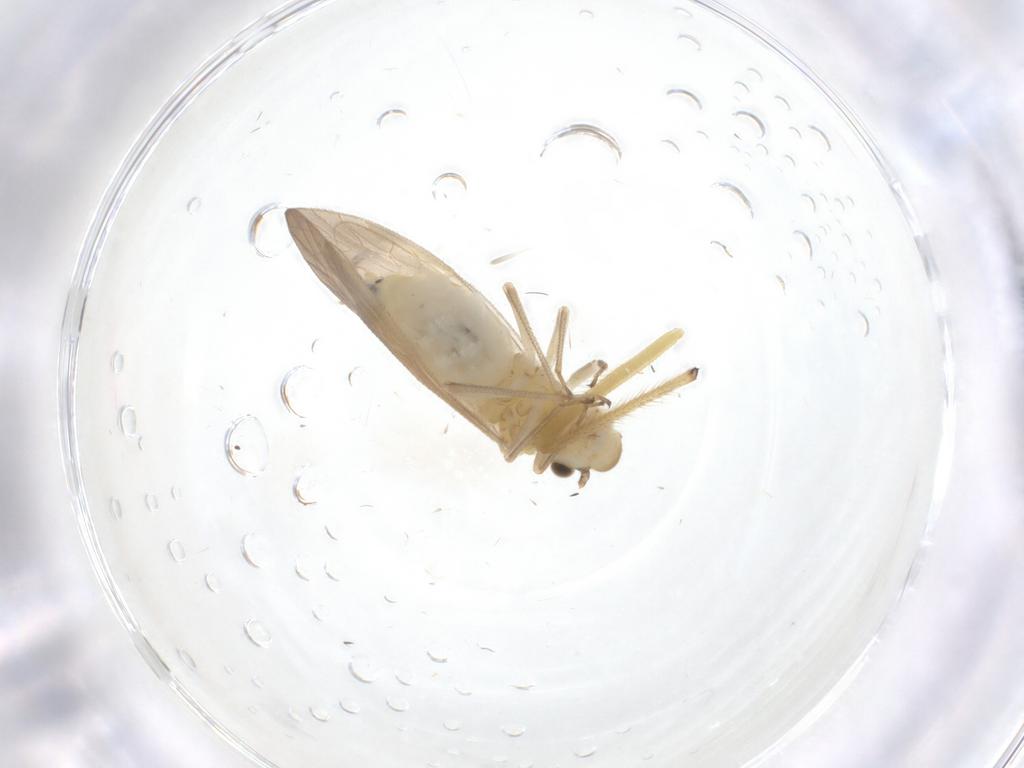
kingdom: Animalia
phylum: Arthropoda
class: Insecta
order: Psocodea
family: Caeciliusidae
